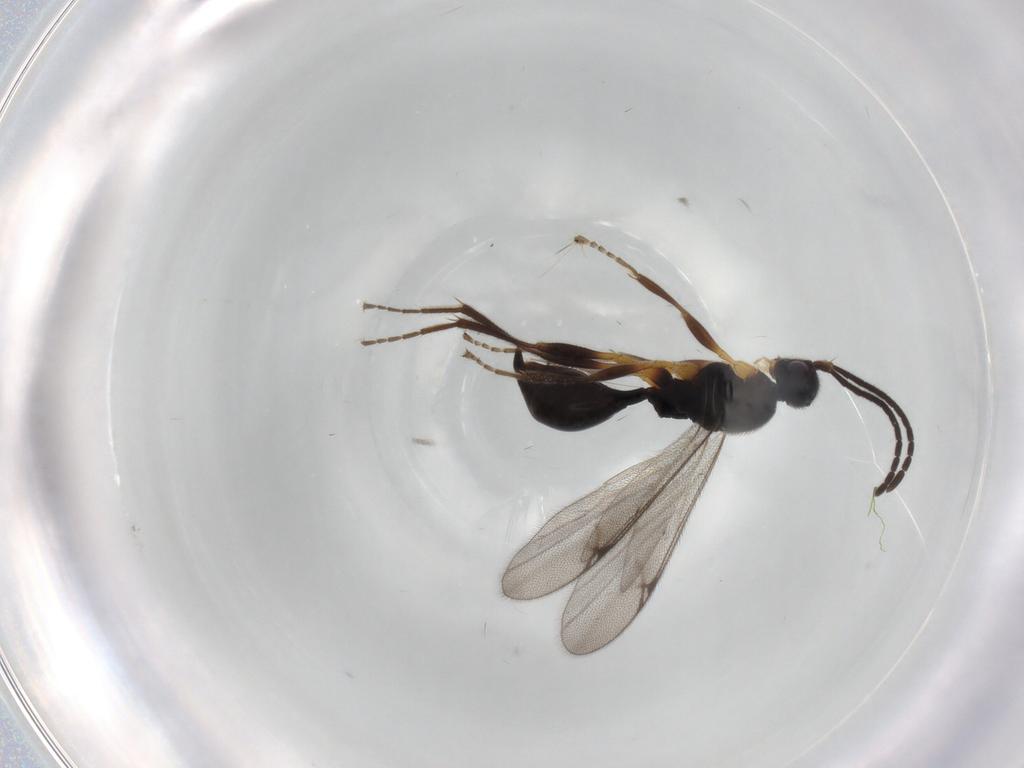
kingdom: Animalia
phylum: Arthropoda
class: Insecta
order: Hymenoptera
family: Proctotrupidae
